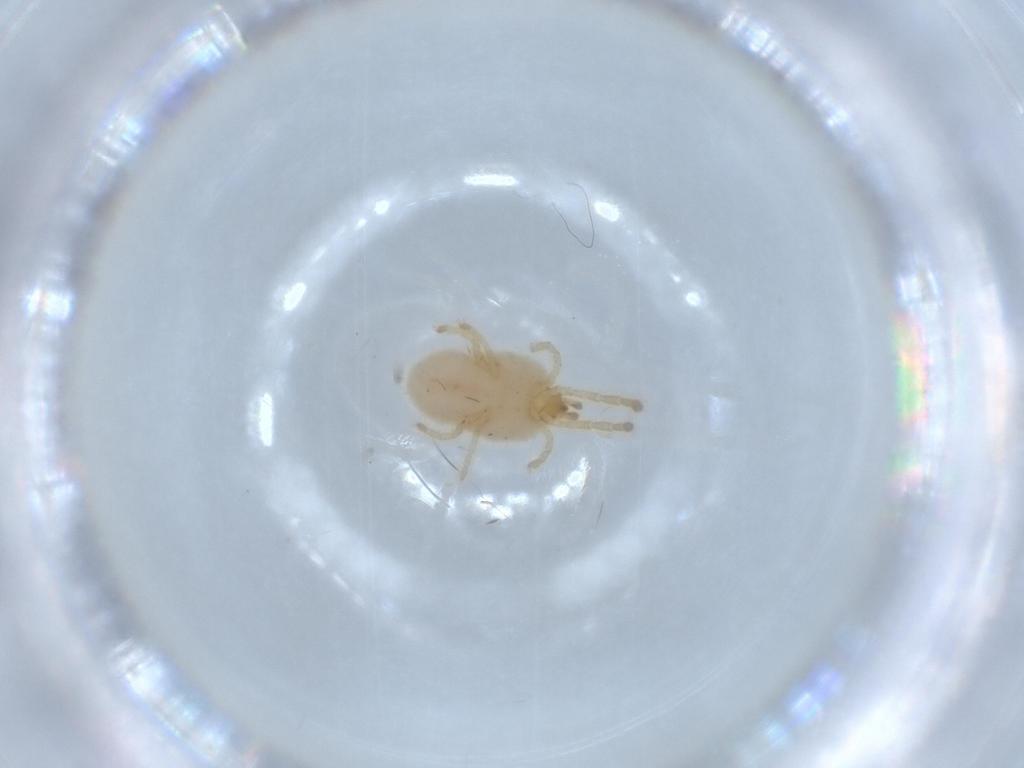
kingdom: Animalia
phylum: Arthropoda
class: Arachnida
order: Trombidiformes
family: Trombidiidae
